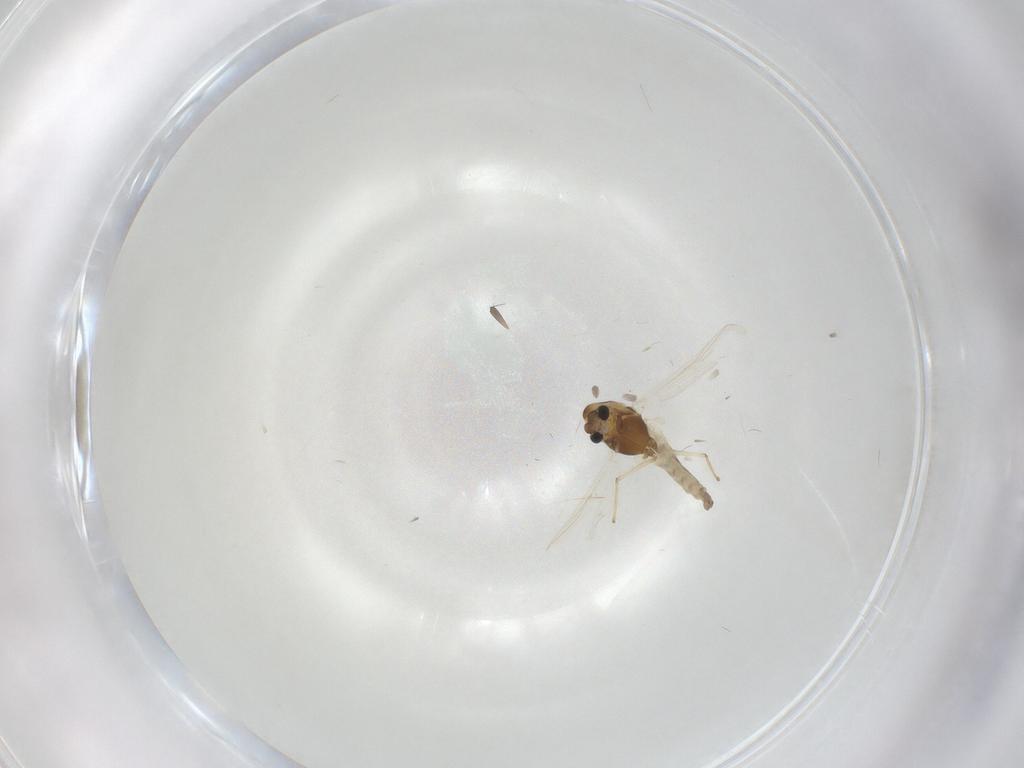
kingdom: Animalia
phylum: Arthropoda
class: Insecta
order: Diptera
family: Chironomidae
